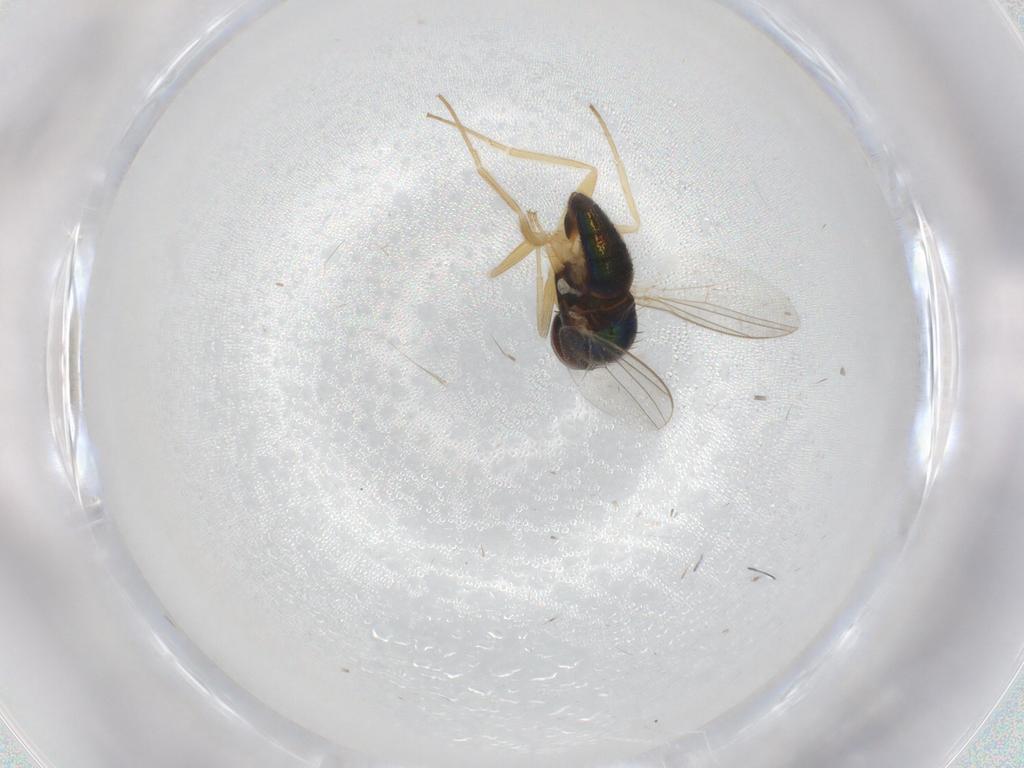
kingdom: Animalia
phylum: Arthropoda
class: Insecta
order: Diptera
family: Dolichopodidae
